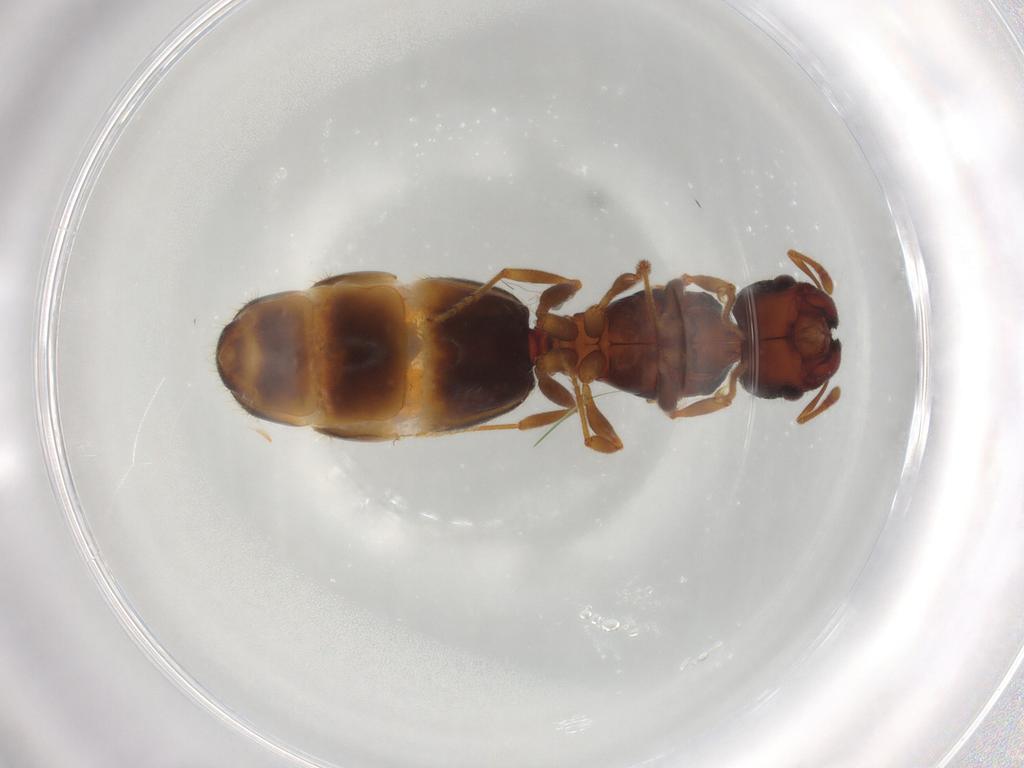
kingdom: Animalia
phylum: Arthropoda
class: Insecta
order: Hymenoptera
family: Formicidae
